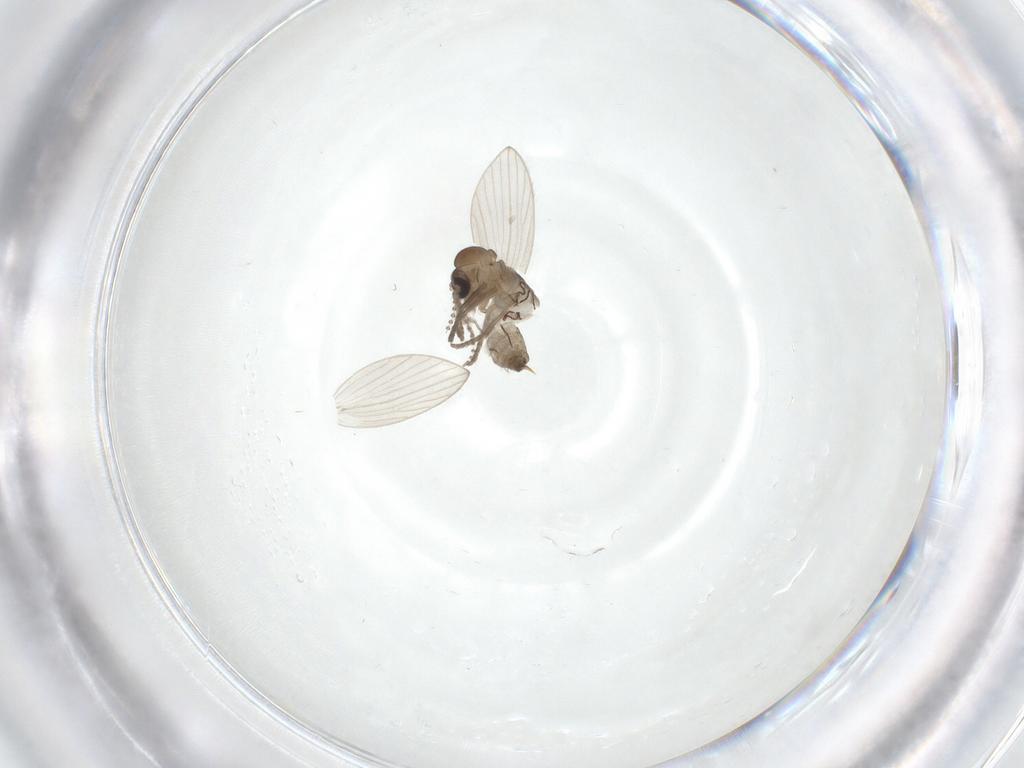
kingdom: Animalia
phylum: Arthropoda
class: Insecta
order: Diptera
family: Psychodidae
